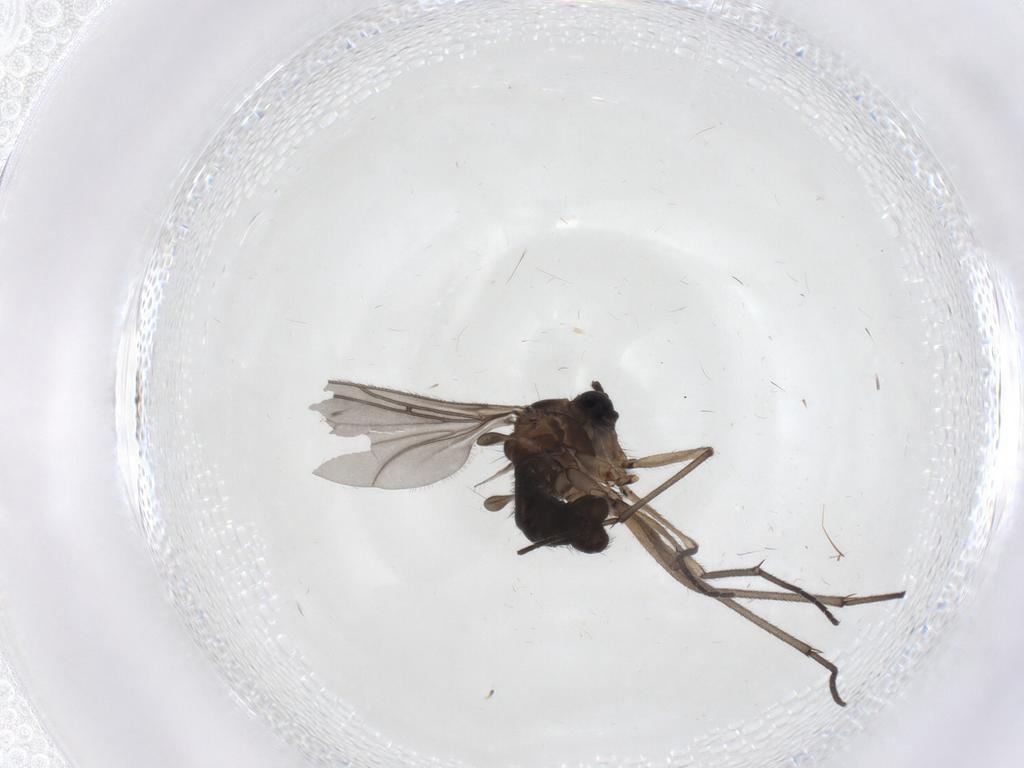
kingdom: Animalia
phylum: Arthropoda
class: Insecta
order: Diptera
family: Sciaridae
